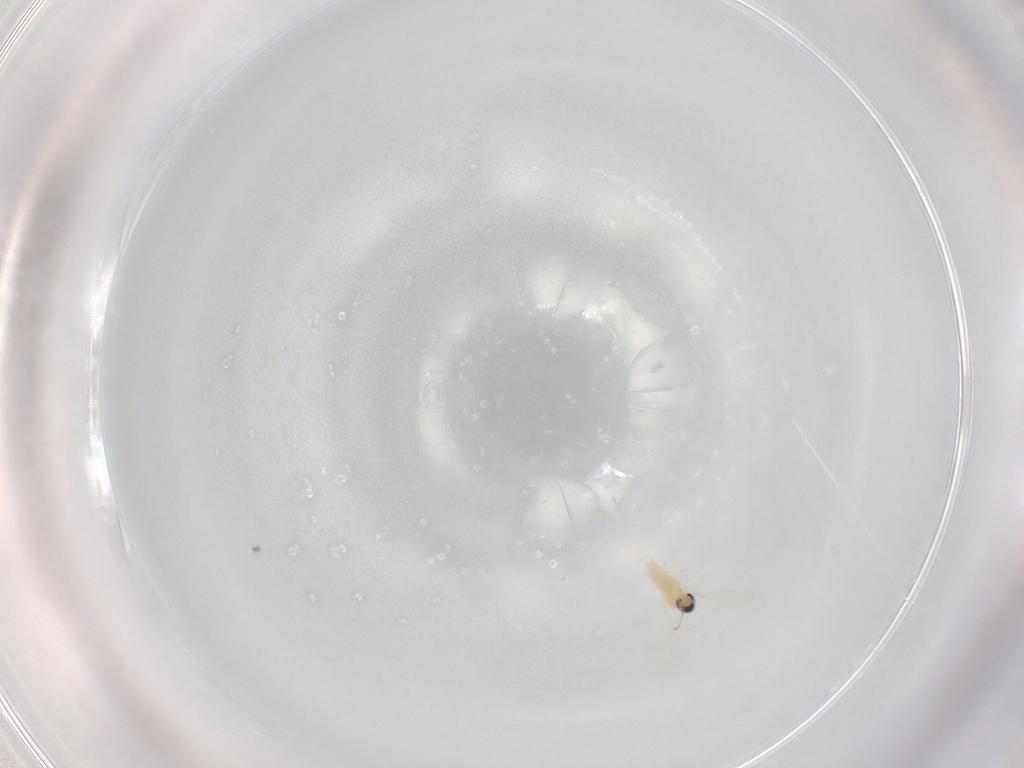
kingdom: Animalia
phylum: Arthropoda
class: Insecta
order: Diptera
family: Cecidomyiidae
